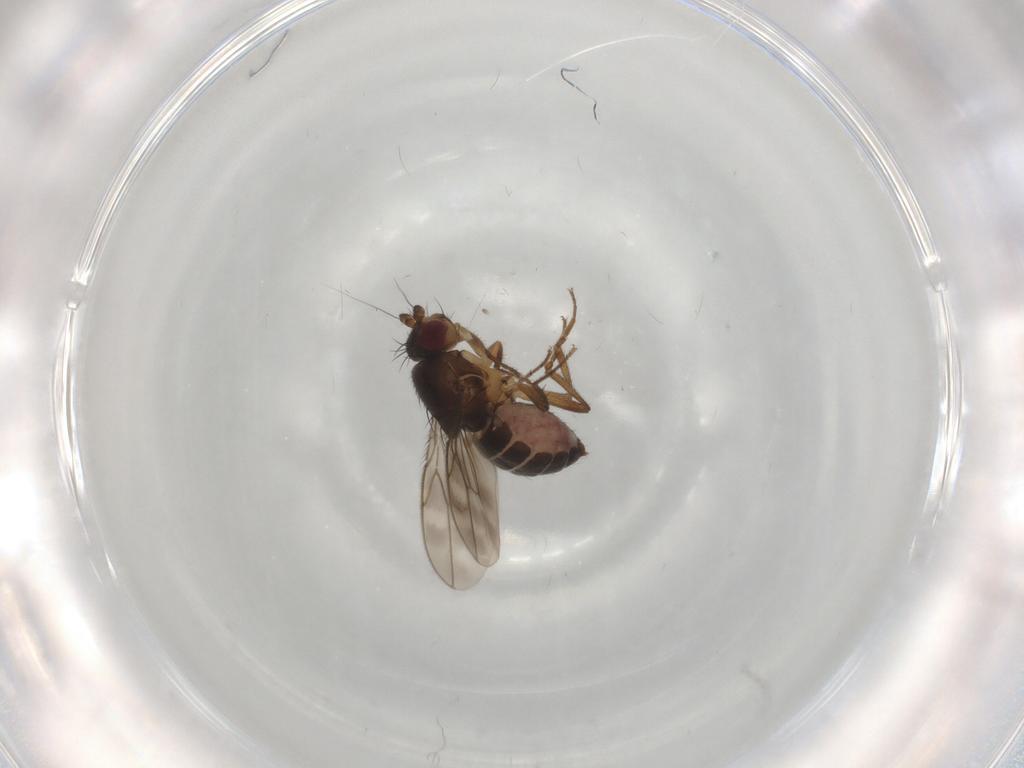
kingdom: Animalia
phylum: Arthropoda
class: Insecta
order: Diptera
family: Sphaeroceridae
